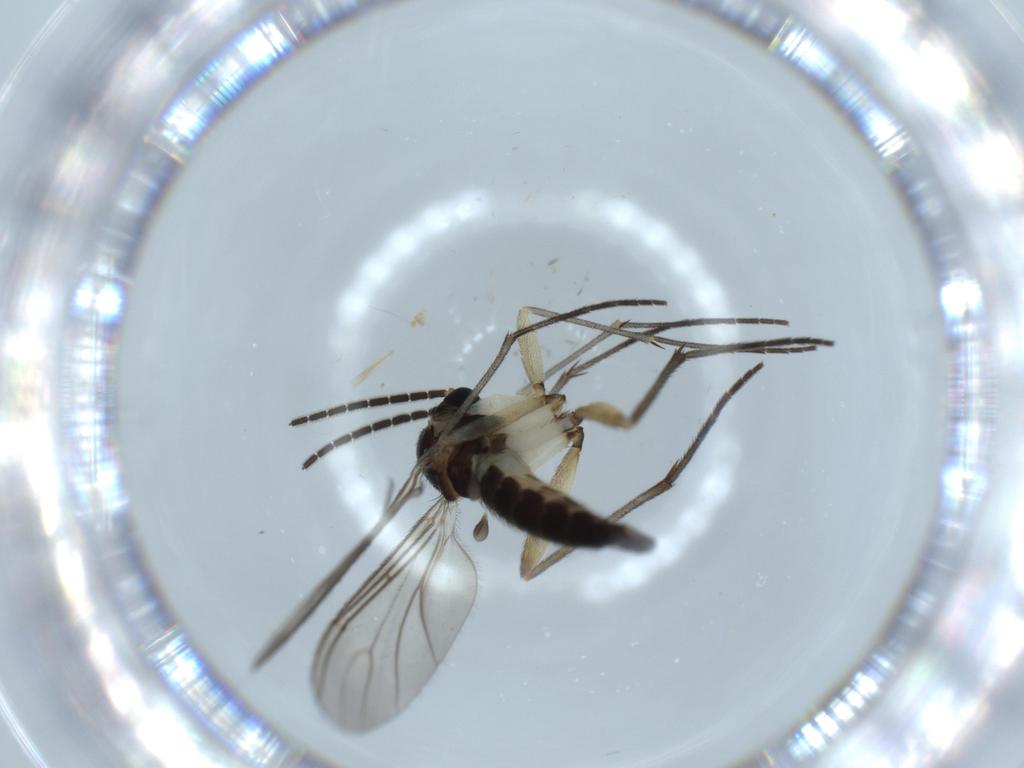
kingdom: Animalia
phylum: Arthropoda
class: Insecta
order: Diptera
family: Sciaridae
